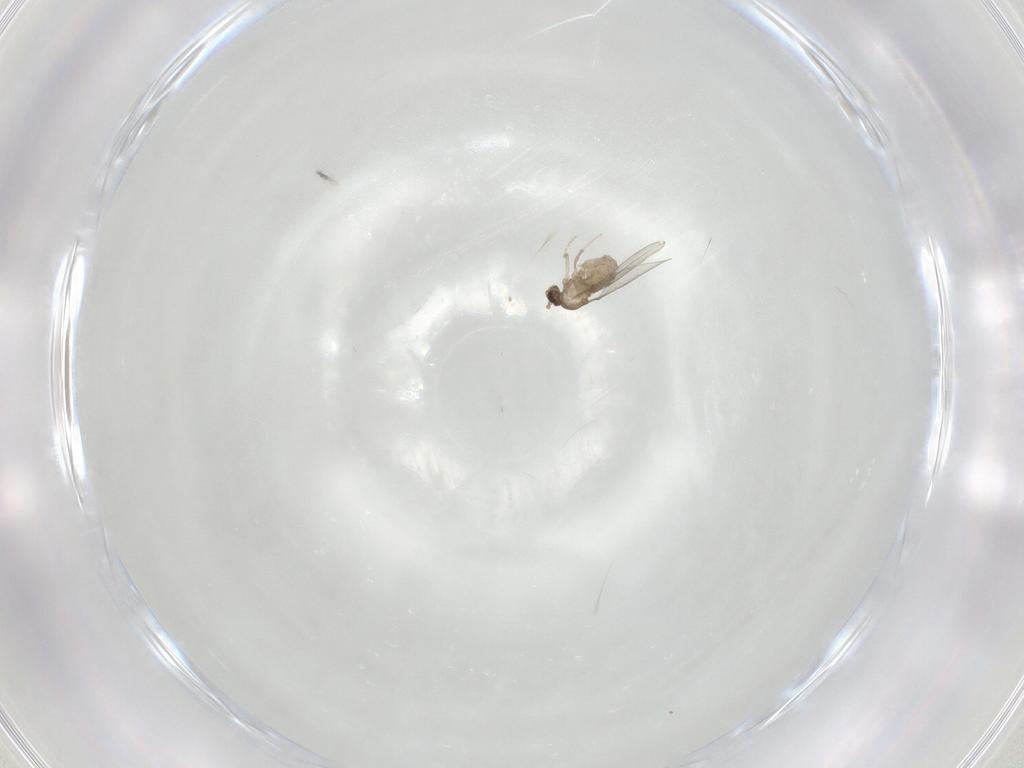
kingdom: Animalia
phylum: Arthropoda
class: Insecta
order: Diptera
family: Cecidomyiidae
